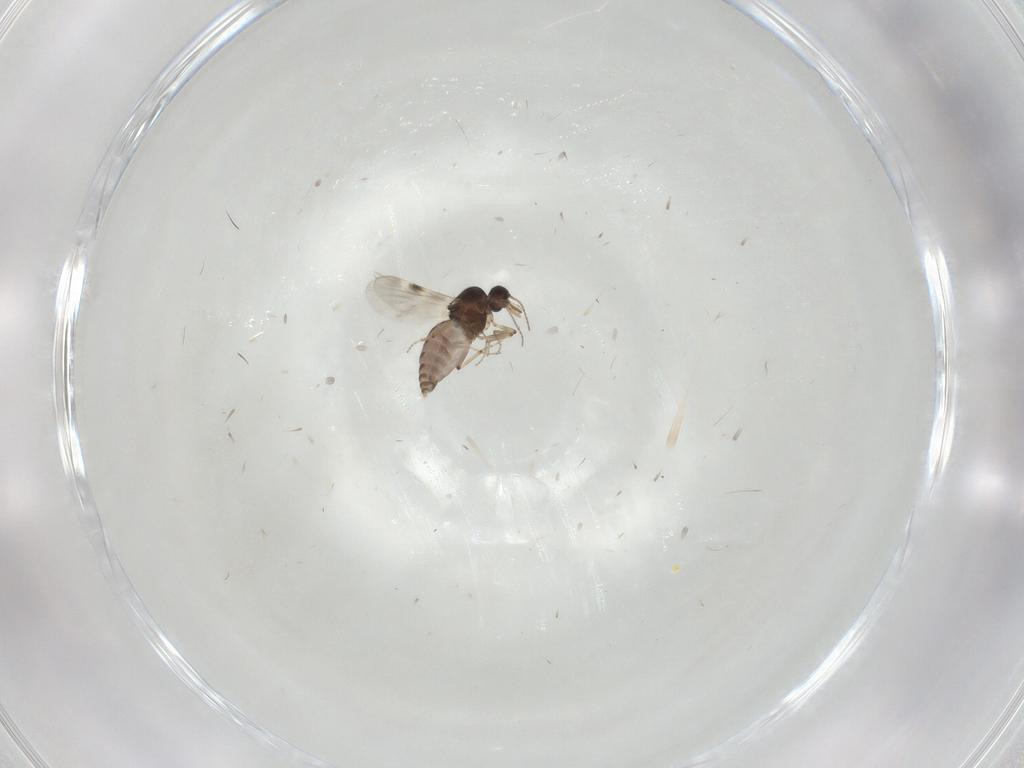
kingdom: Animalia
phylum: Arthropoda
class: Insecta
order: Diptera
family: Cecidomyiidae
